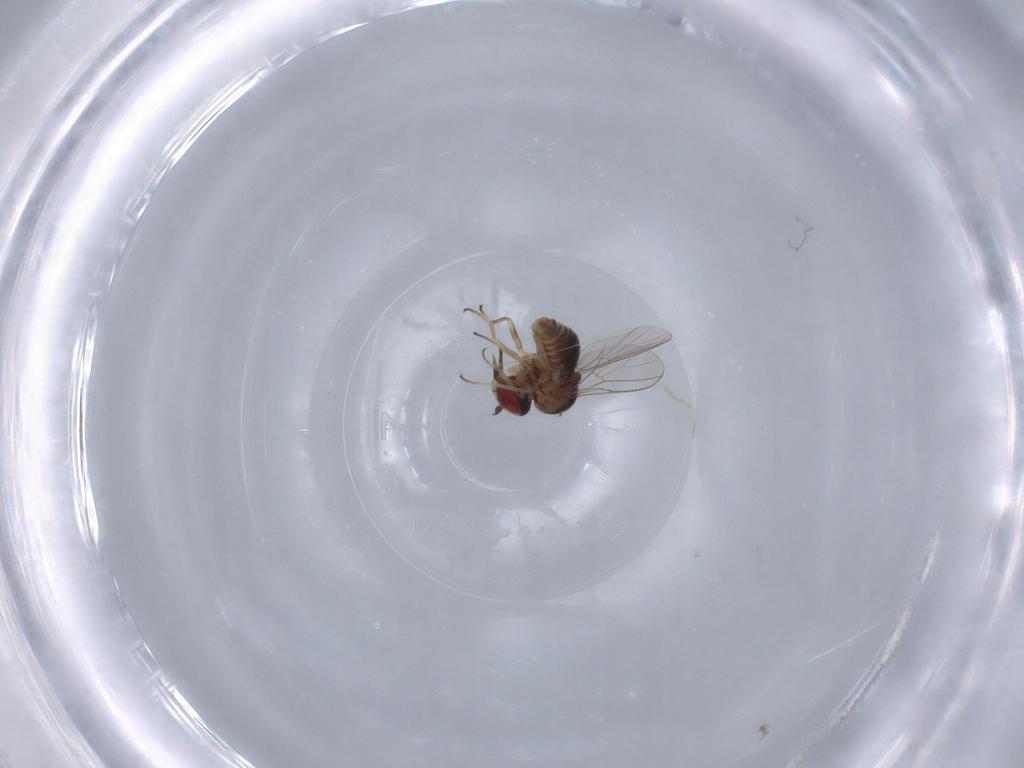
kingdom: Animalia
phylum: Arthropoda
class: Insecta
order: Diptera
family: Chloropidae
